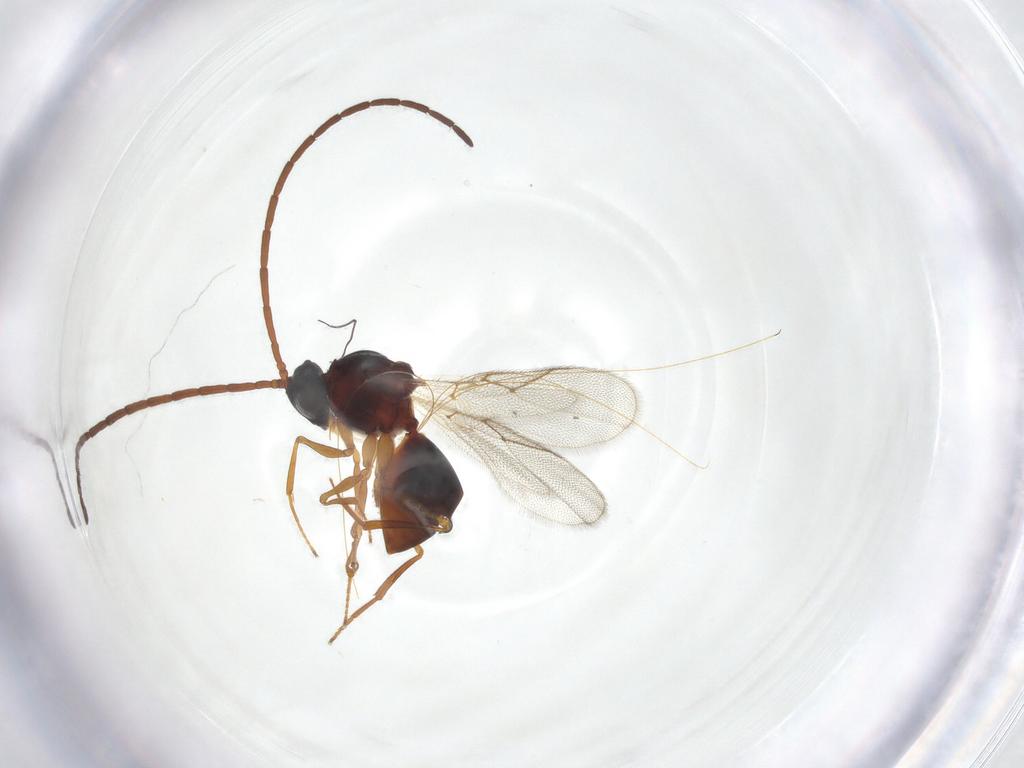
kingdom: Animalia
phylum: Arthropoda
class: Insecta
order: Hymenoptera
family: Figitidae
